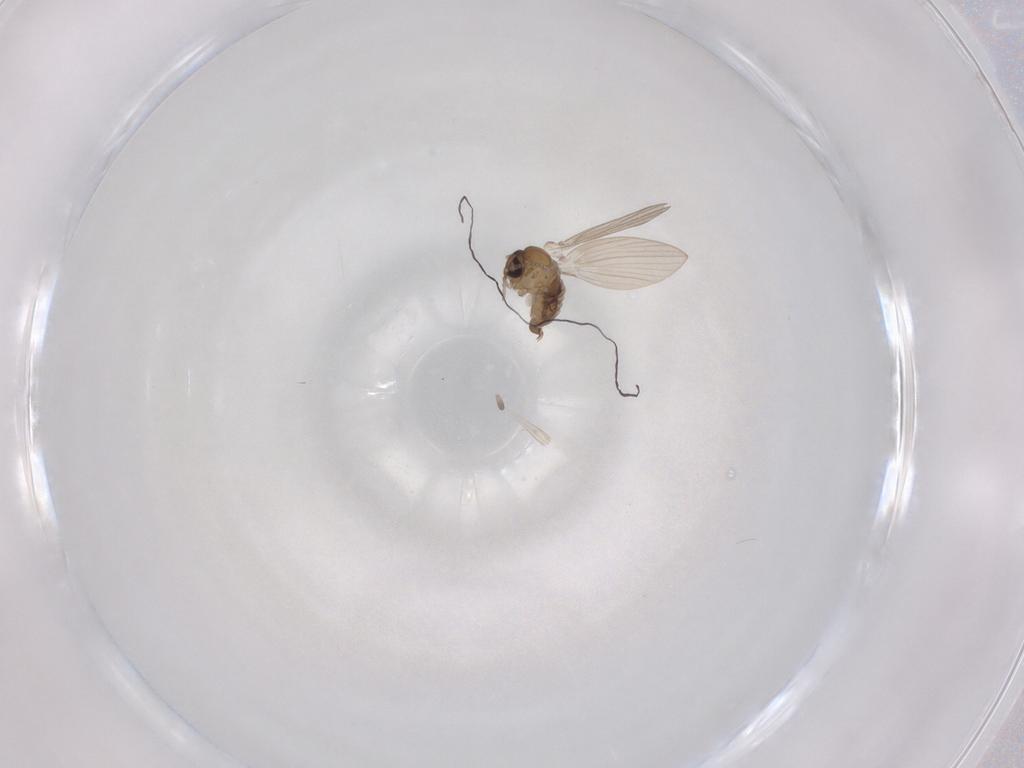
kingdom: Animalia
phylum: Arthropoda
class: Insecta
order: Diptera
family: Psychodidae
